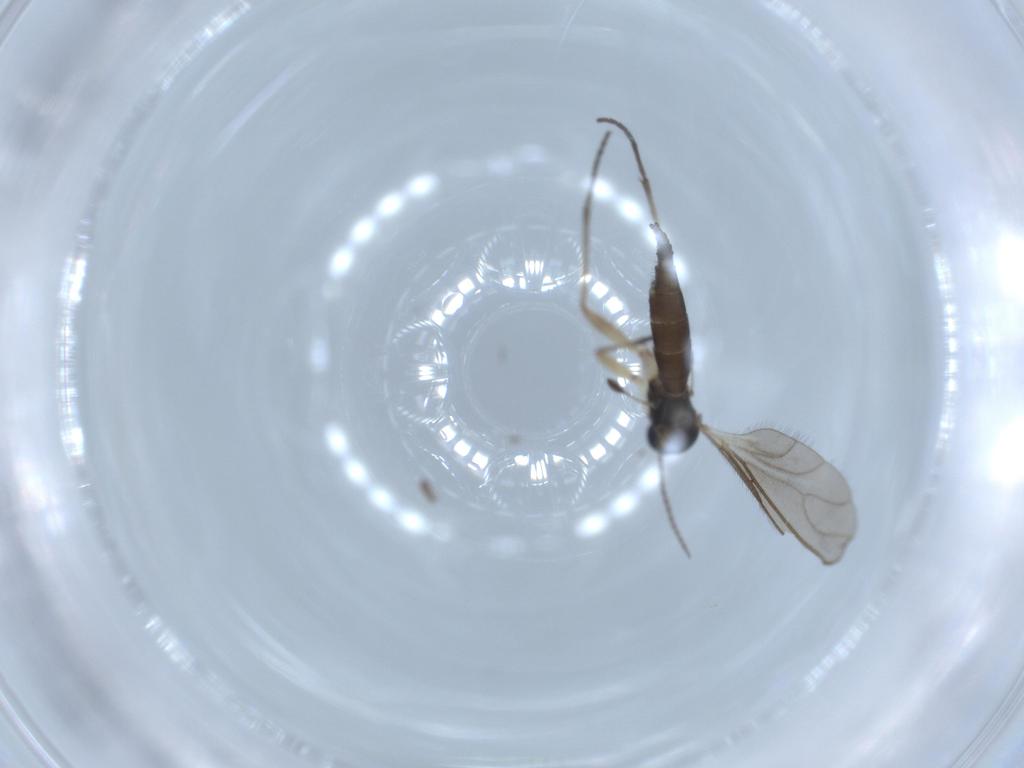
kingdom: Animalia
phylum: Arthropoda
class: Insecta
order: Diptera
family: Sciaridae
